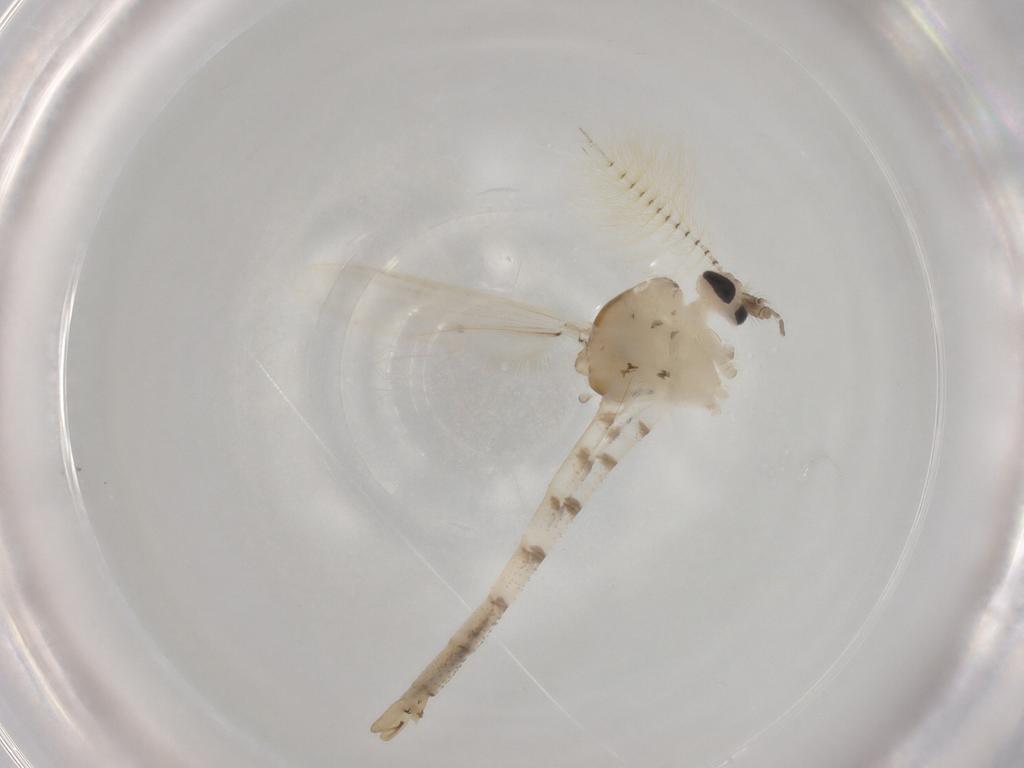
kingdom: Animalia
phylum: Arthropoda
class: Insecta
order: Diptera
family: Chaoboridae
